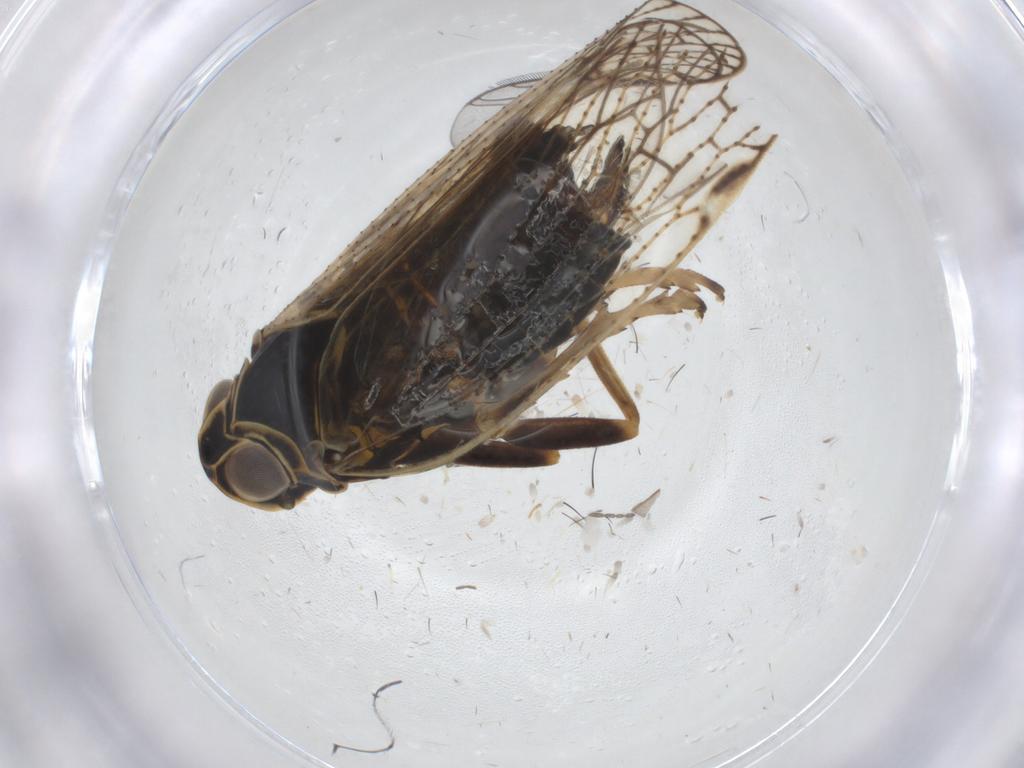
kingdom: Animalia
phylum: Arthropoda
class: Insecta
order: Hemiptera
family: Cixiidae
